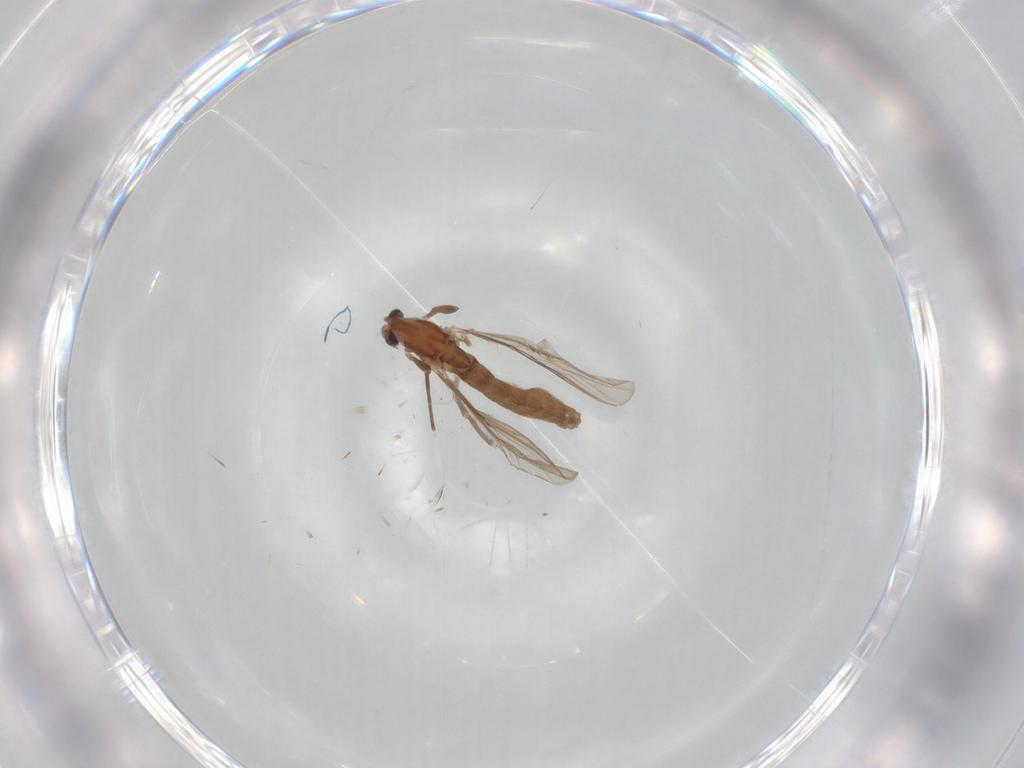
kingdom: Animalia
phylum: Arthropoda
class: Insecta
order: Diptera
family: Chironomidae
